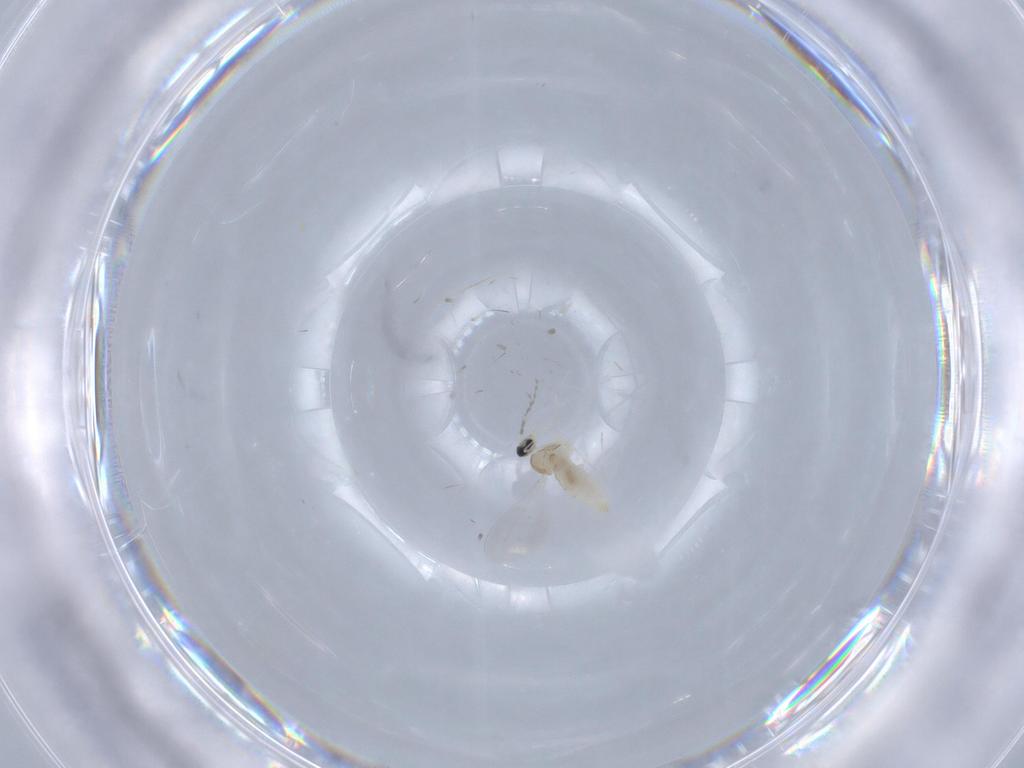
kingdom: Animalia
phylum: Arthropoda
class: Insecta
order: Diptera
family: Cecidomyiidae
